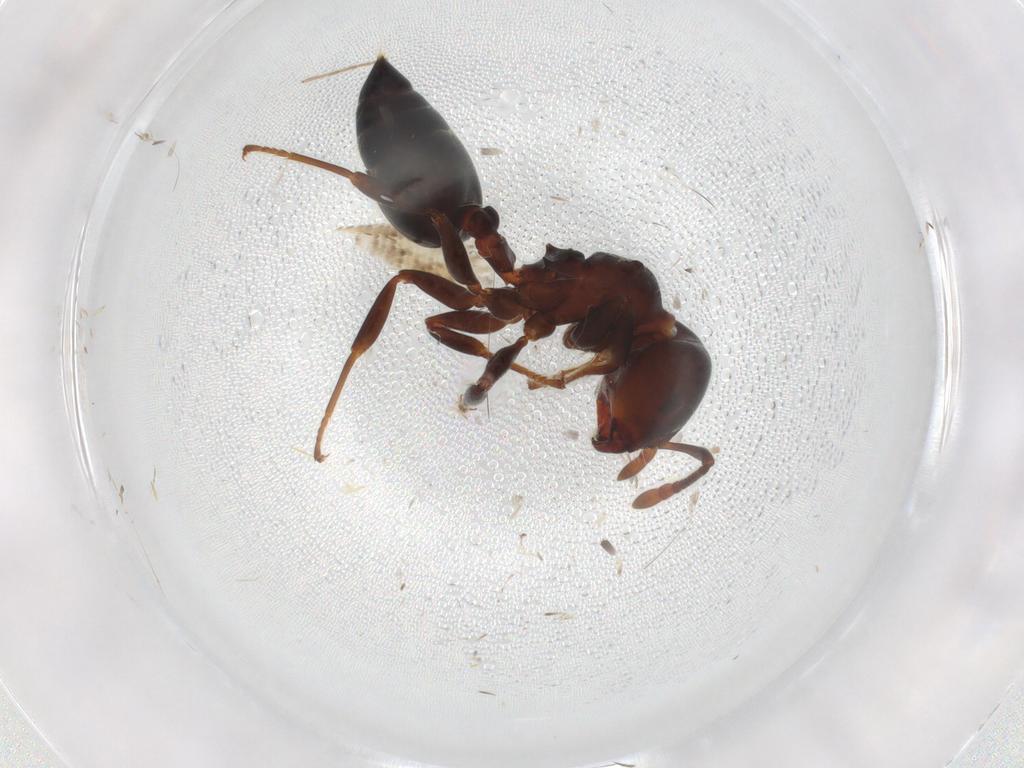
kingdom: Animalia
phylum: Arthropoda
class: Insecta
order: Hymenoptera
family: Formicidae
